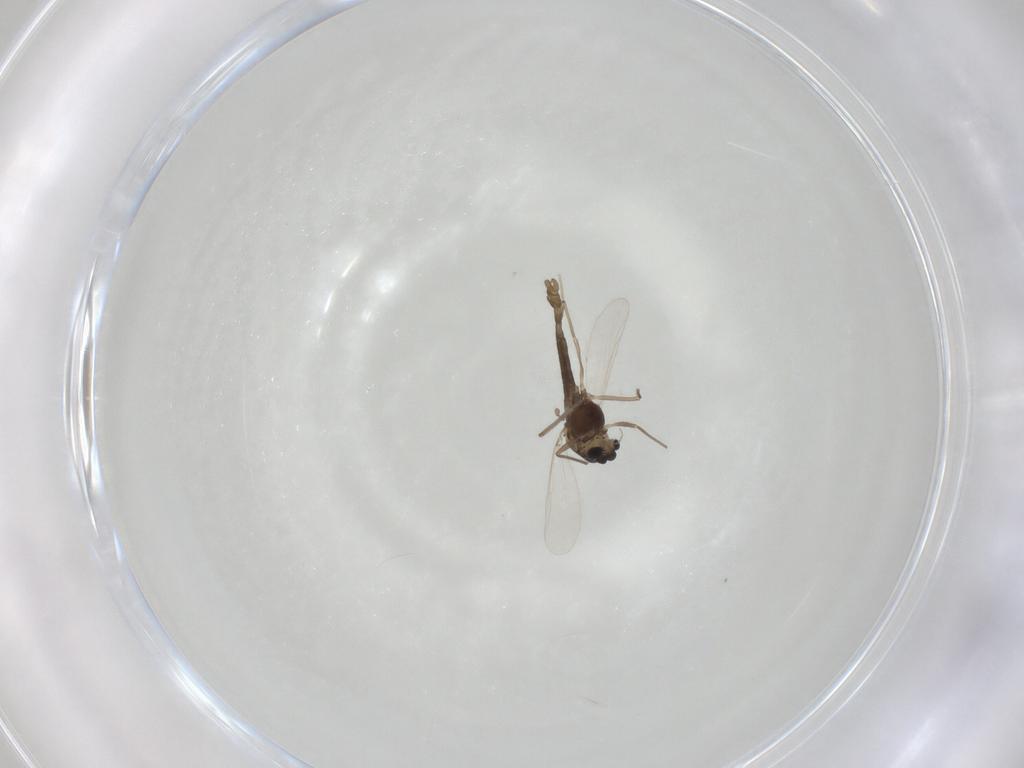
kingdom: Animalia
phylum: Arthropoda
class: Insecta
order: Diptera
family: Chironomidae
